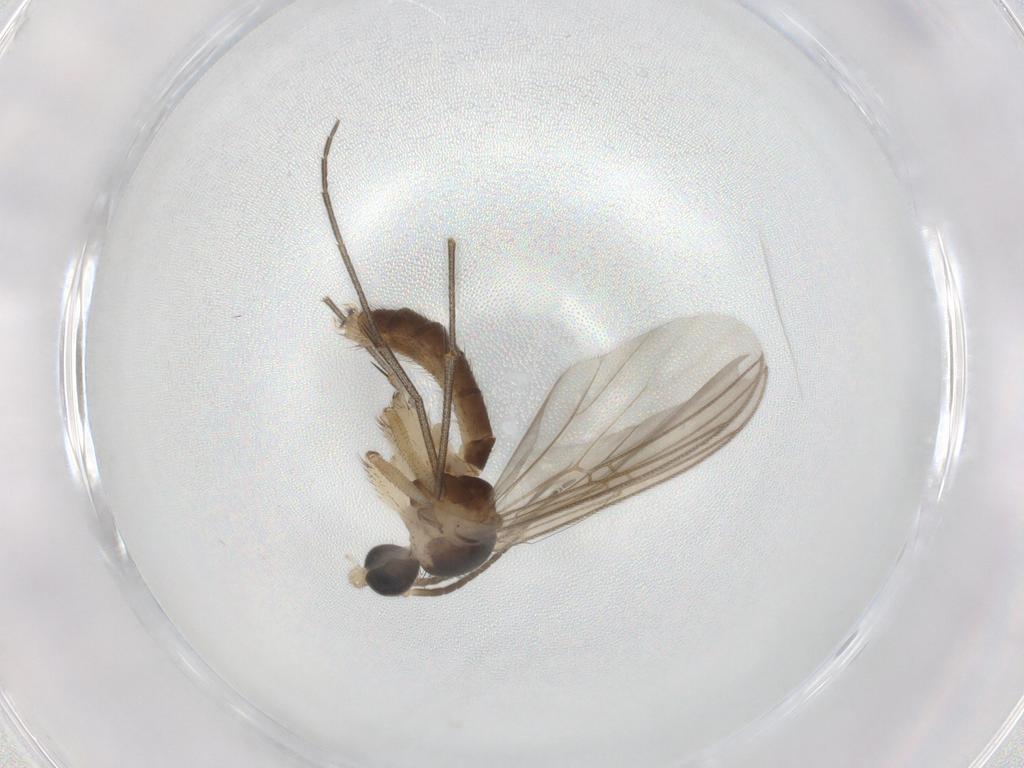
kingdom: Animalia
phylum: Arthropoda
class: Insecta
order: Diptera
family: Mycetophilidae
